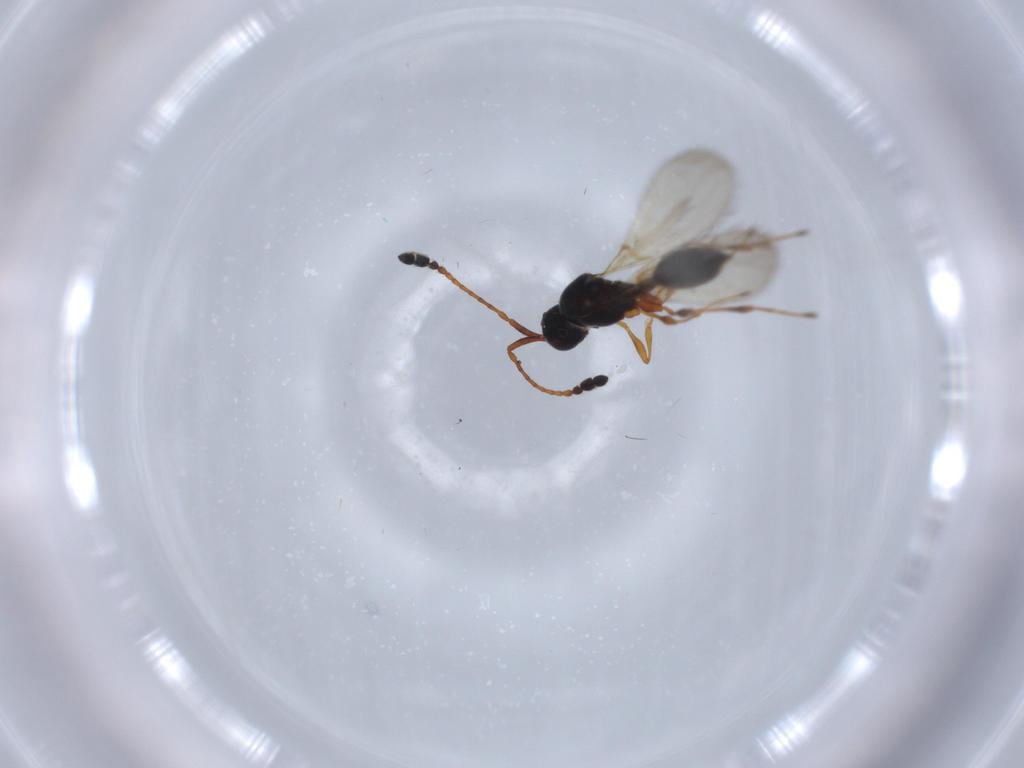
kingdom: Animalia
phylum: Arthropoda
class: Insecta
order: Hymenoptera
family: Diapriidae
